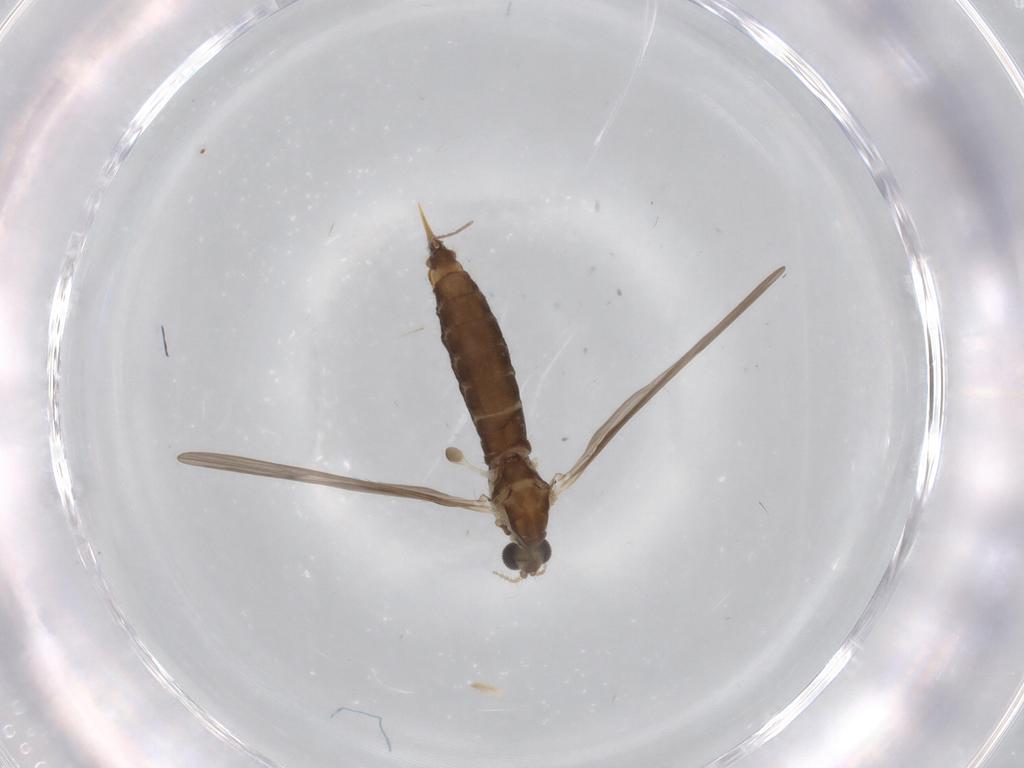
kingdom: Animalia
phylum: Arthropoda
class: Insecta
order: Diptera
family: Limoniidae
